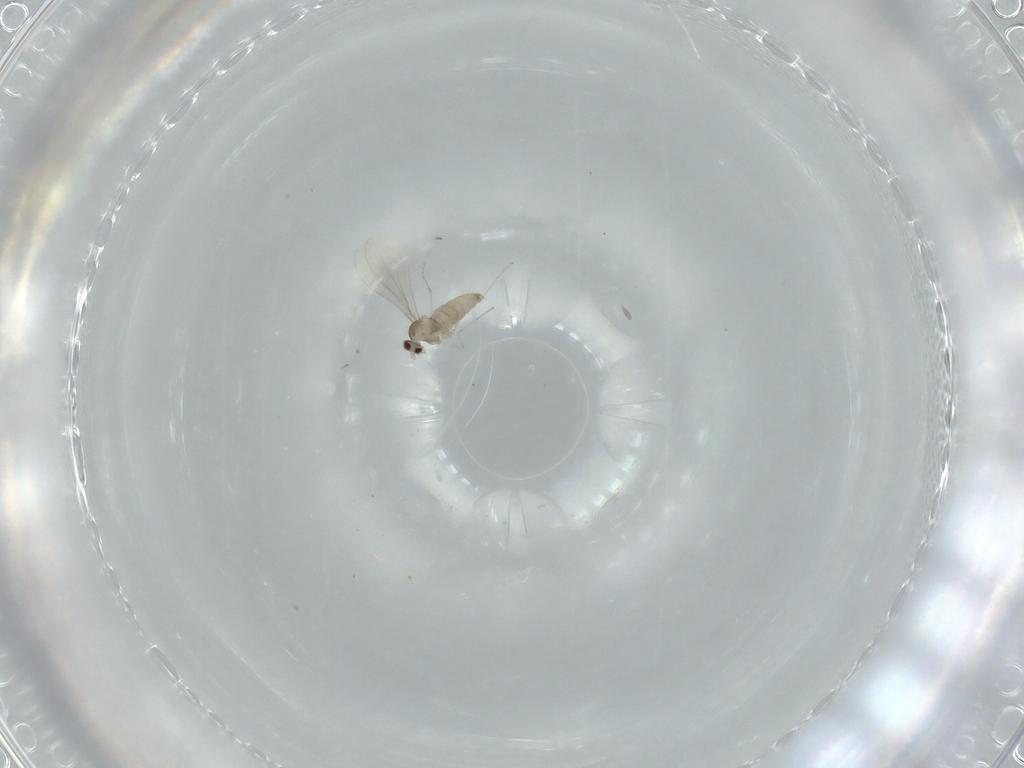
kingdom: Animalia
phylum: Arthropoda
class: Insecta
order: Diptera
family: Cecidomyiidae
